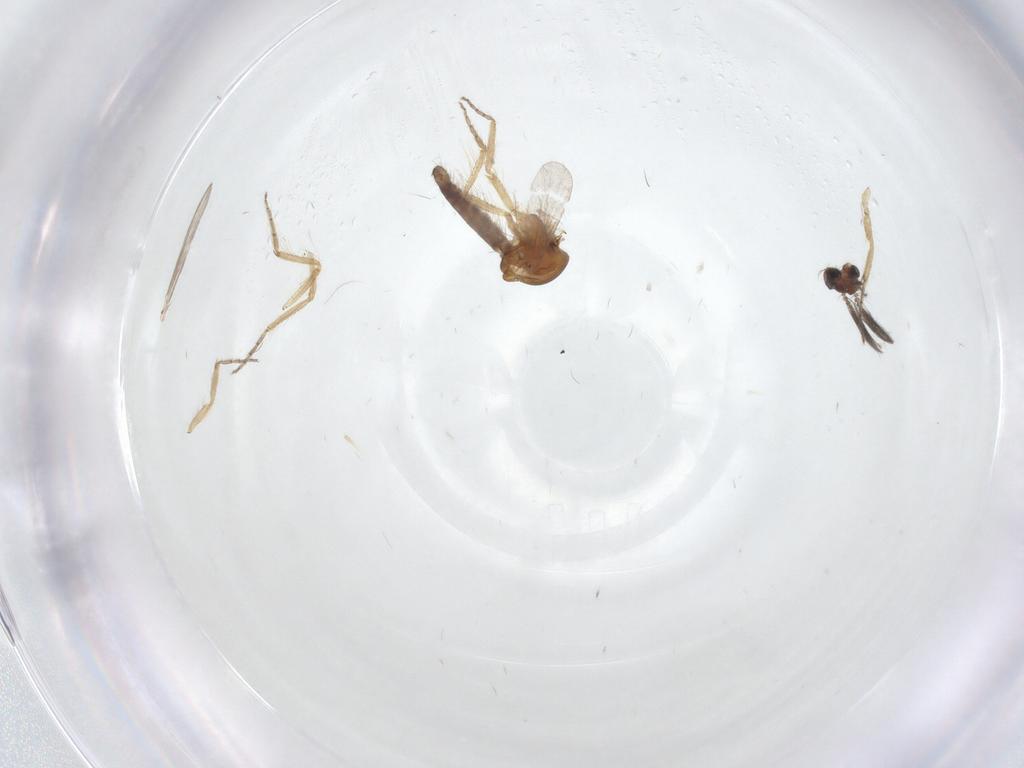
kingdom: Animalia
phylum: Arthropoda
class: Insecta
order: Diptera
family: Ceratopogonidae
